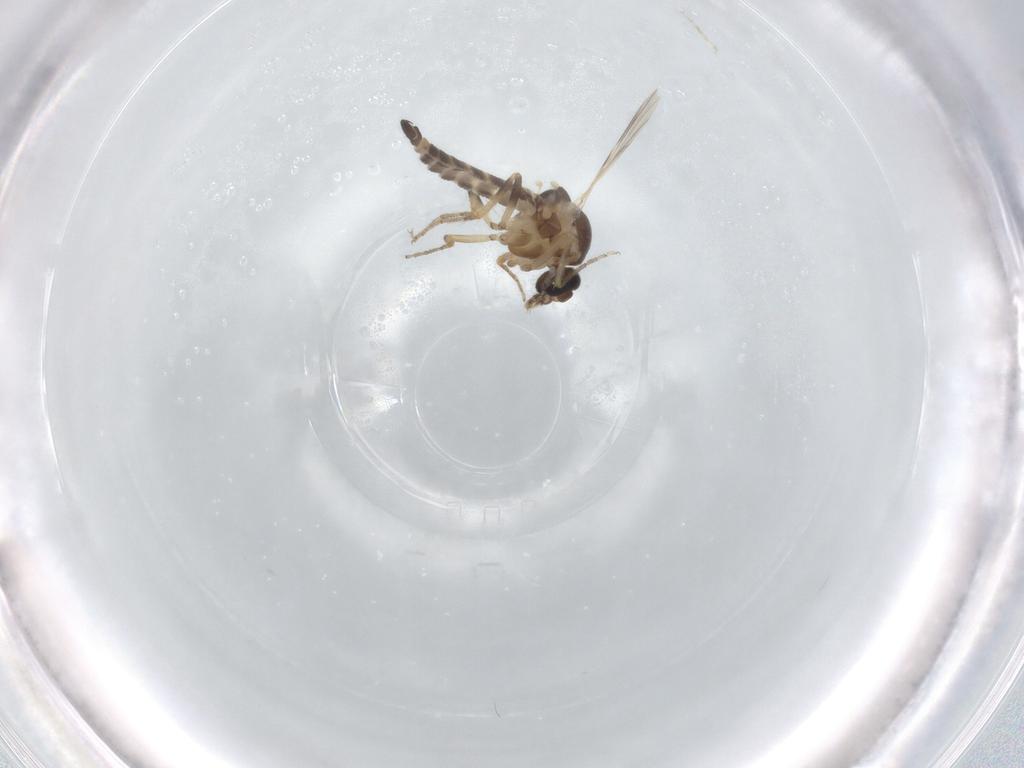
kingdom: Animalia
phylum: Arthropoda
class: Insecta
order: Diptera
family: Ceratopogonidae
